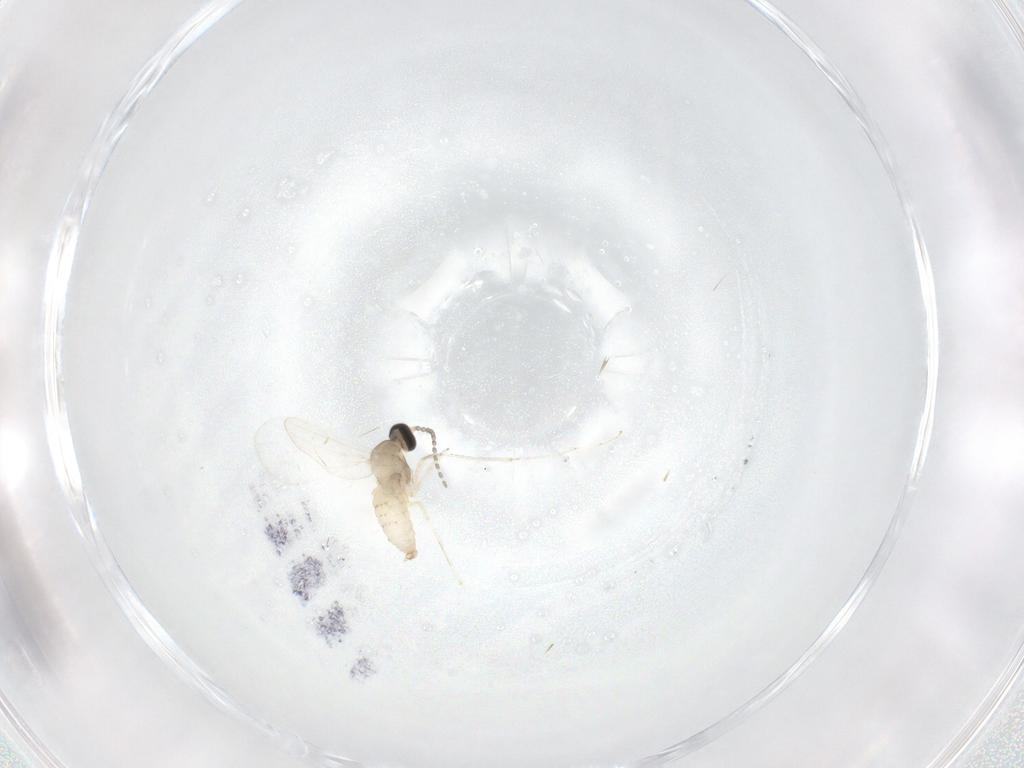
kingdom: Animalia
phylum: Arthropoda
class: Insecta
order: Diptera
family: Cecidomyiidae
